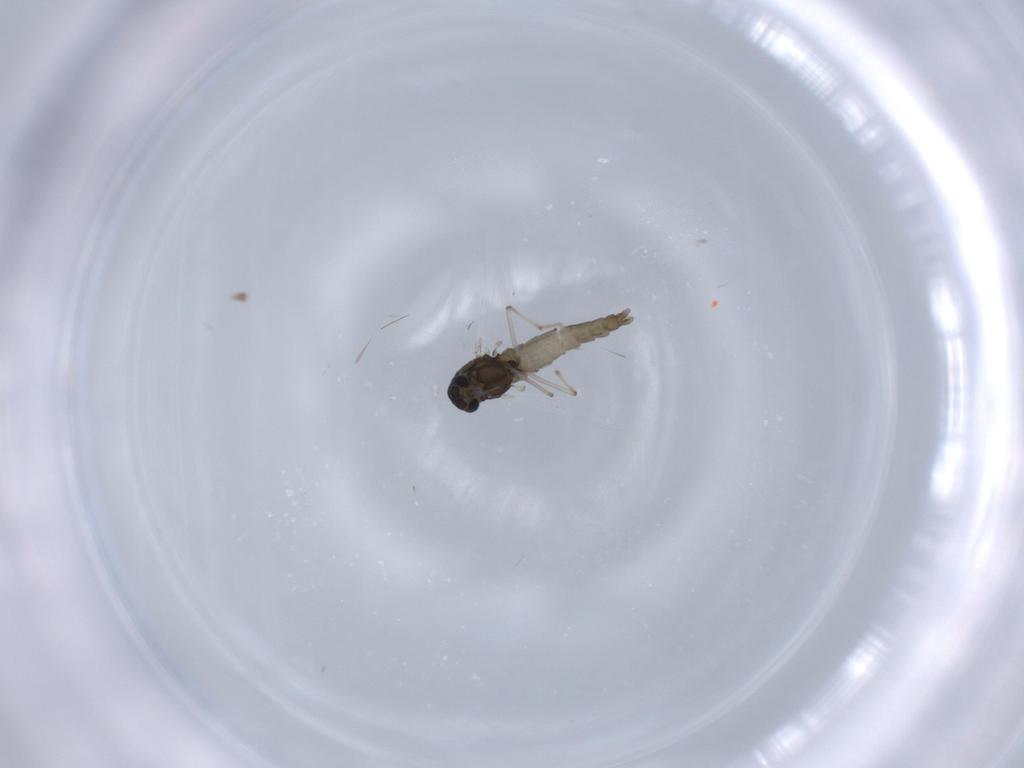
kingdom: Animalia
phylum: Arthropoda
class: Insecta
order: Diptera
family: Chironomidae
